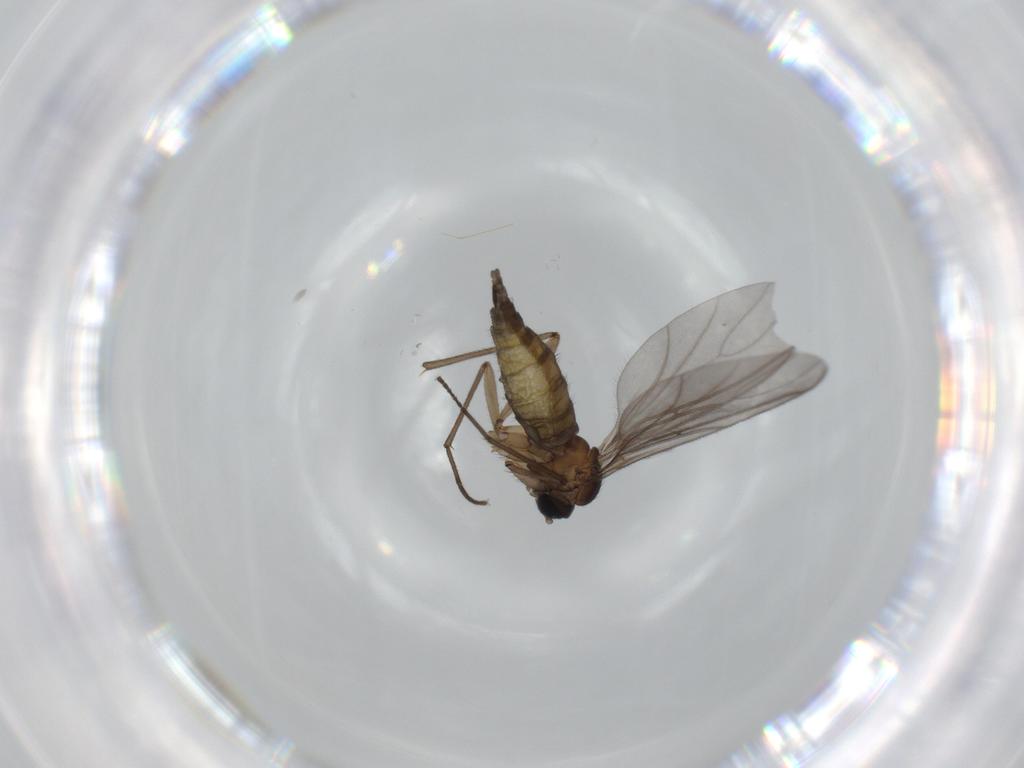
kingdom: Animalia
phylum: Arthropoda
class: Insecta
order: Diptera
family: Sciaridae
